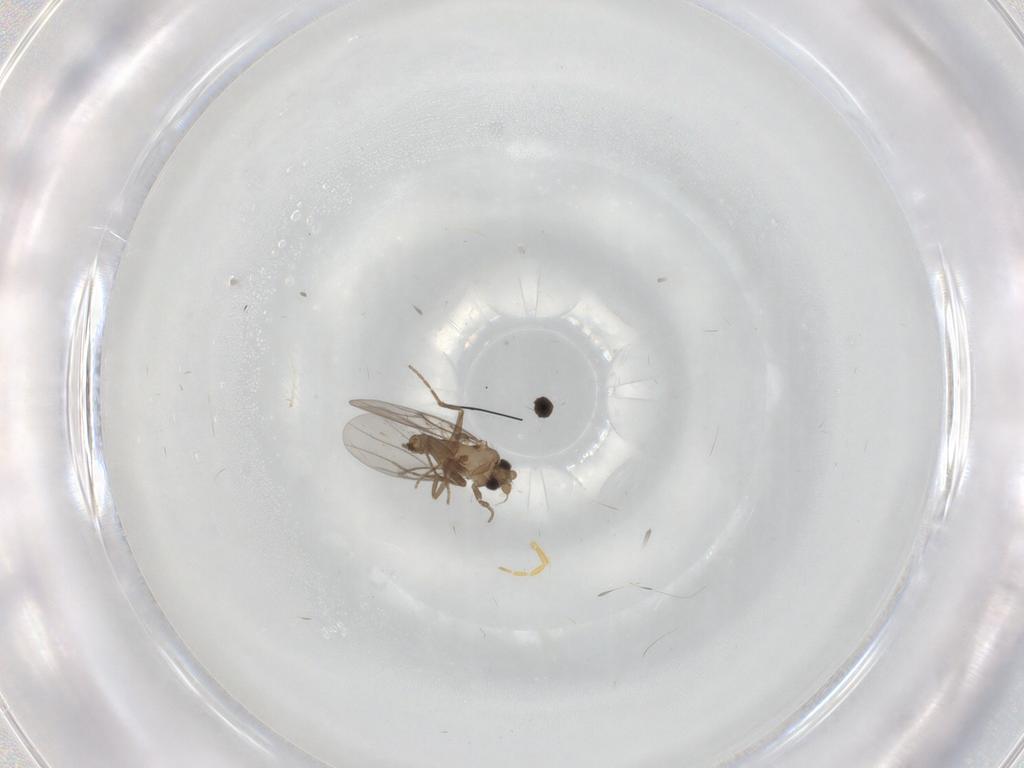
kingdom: Animalia
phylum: Arthropoda
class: Insecta
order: Diptera
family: Cecidomyiidae
